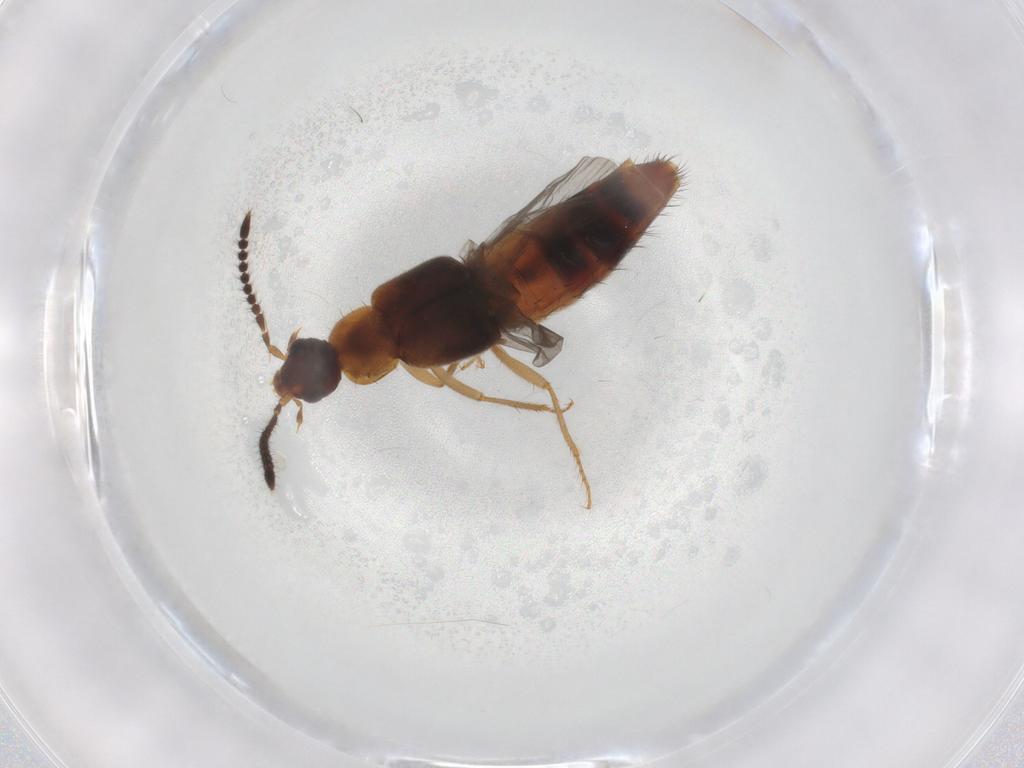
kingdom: Animalia
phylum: Arthropoda
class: Insecta
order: Coleoptera
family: Staphylinidae
